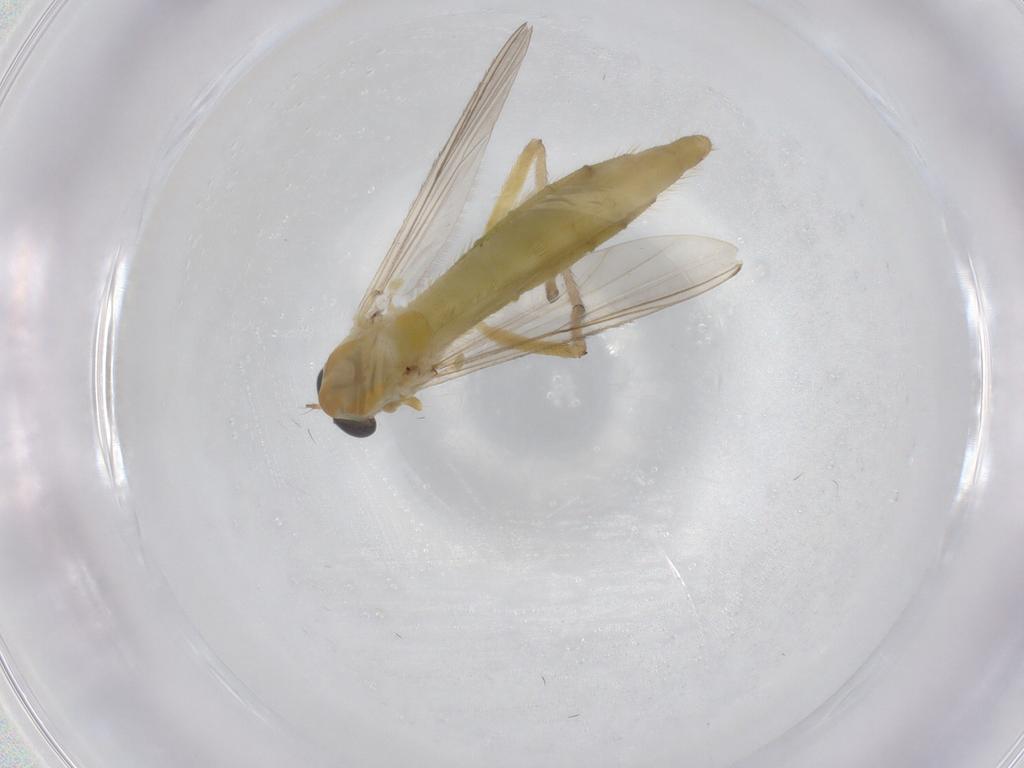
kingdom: Animalia
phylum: Arthropoda
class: Insecta
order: Diptera
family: Chironomidae
